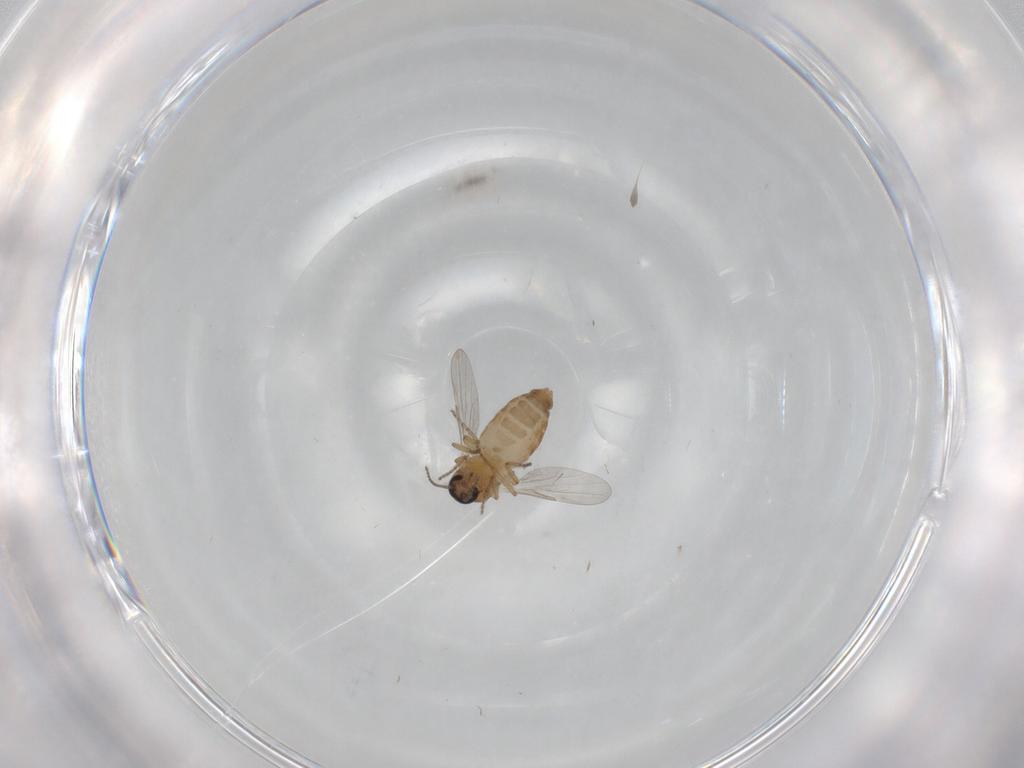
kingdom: Animalia
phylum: Arthropoda
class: Insecta
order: Diptera
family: Ceratopogonidae
